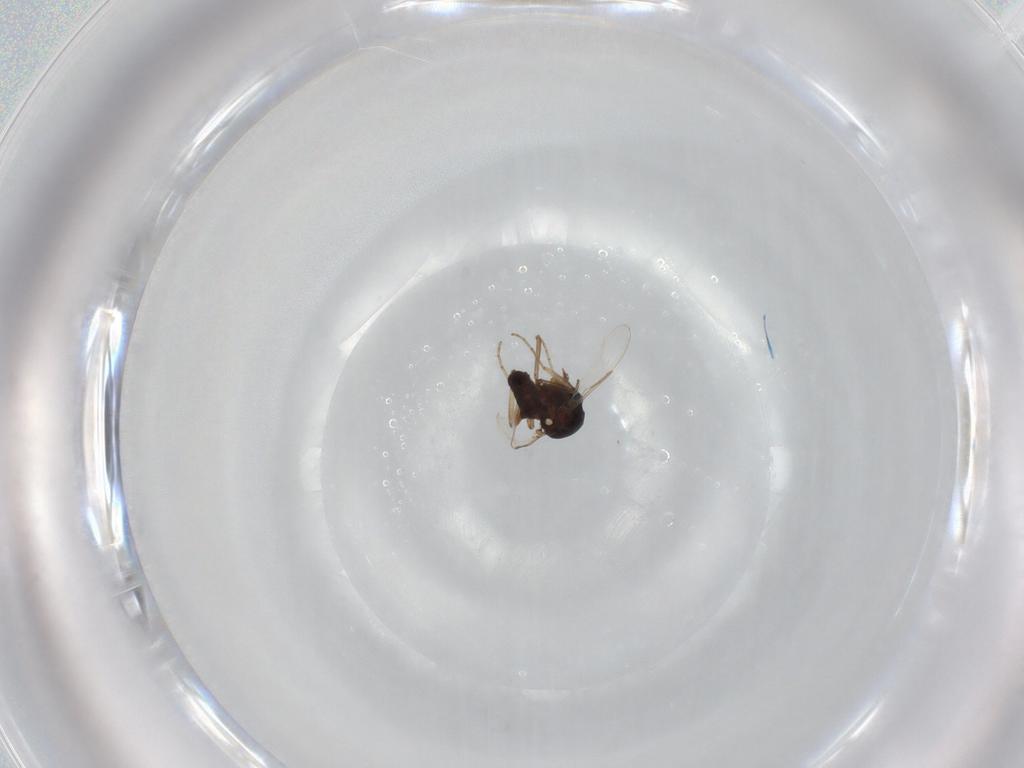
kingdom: Animalia
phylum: Arthropoda
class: Insecta
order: Diptera
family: Ceratopogonidae
